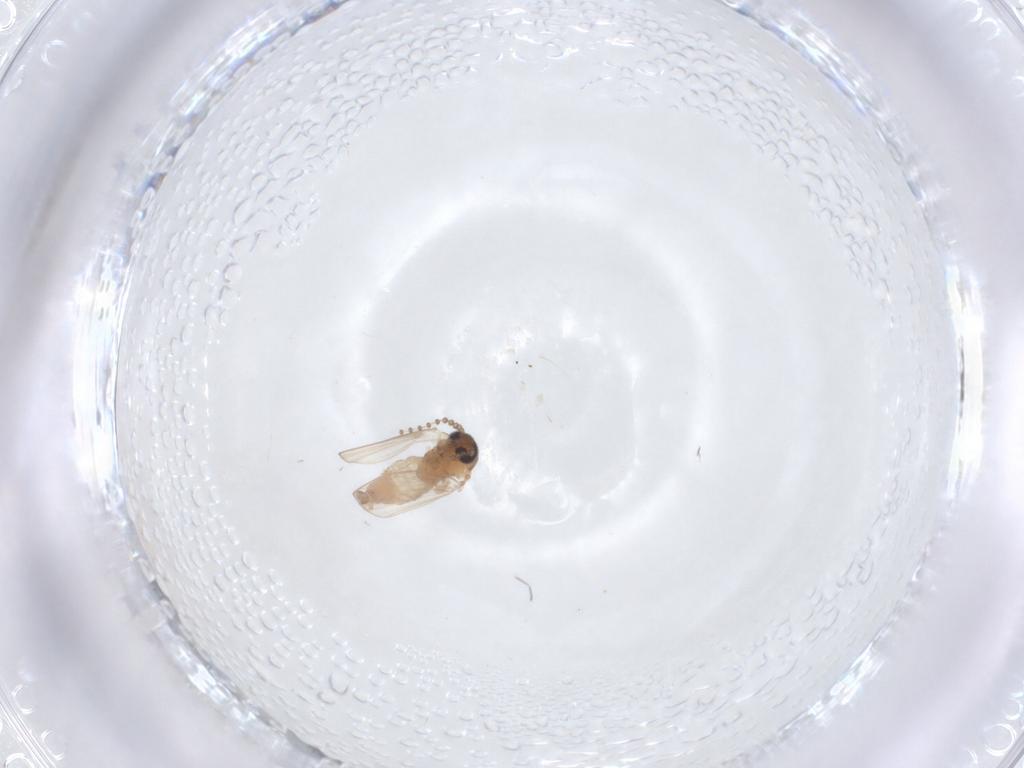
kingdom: Animalia
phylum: Arthropoda
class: Insecta
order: Diptera
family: Psychodidae
